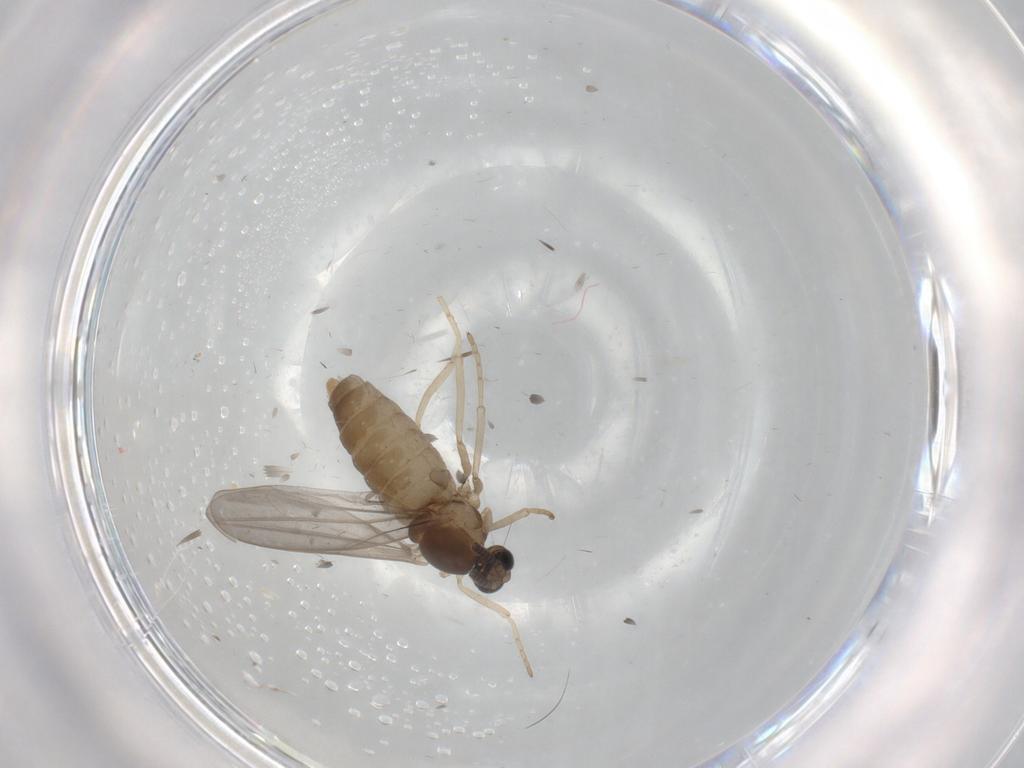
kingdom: Animalia
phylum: Arthropoda
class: Insecta
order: Diptera
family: Cecidomyiidae
